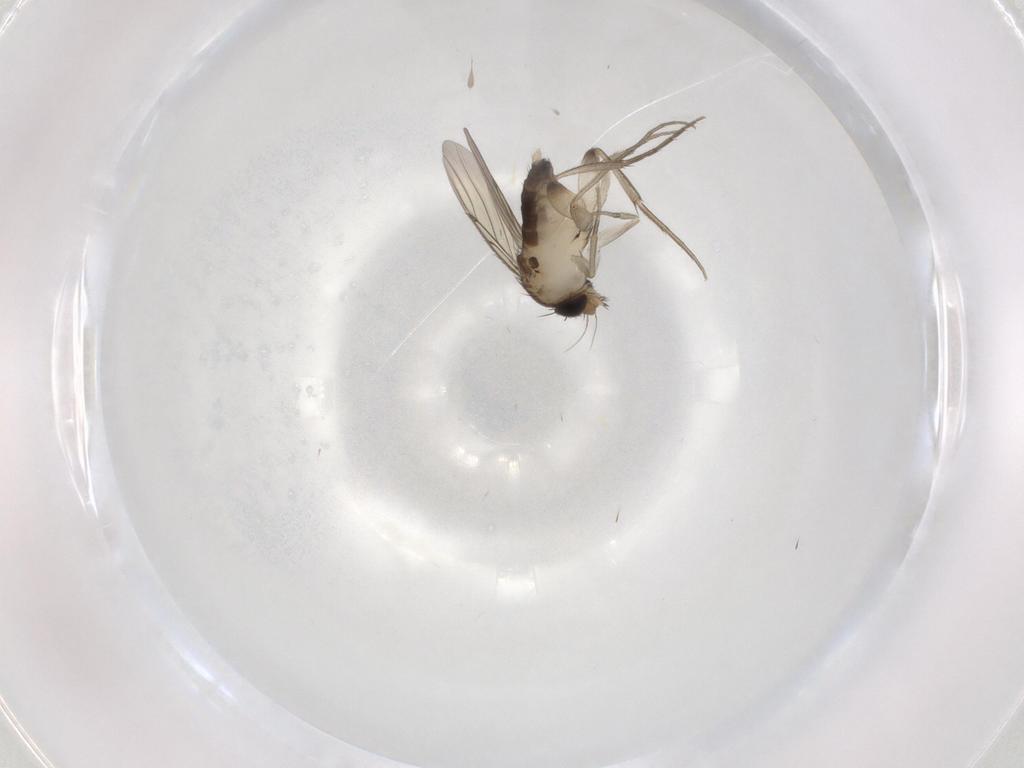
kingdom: Animalia
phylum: Arthropoda
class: Insecta
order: Diptera
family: Phoridae
